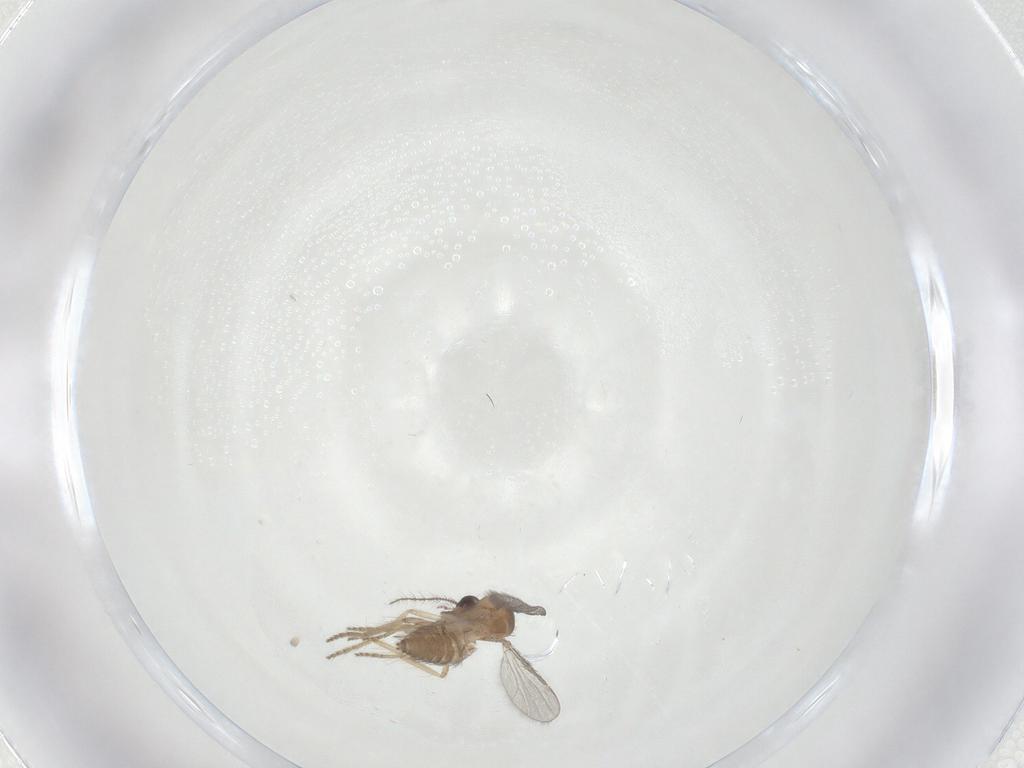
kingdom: Animalia
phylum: Arthropoda
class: Insecta
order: Diptera
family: Ceratopogonidae
